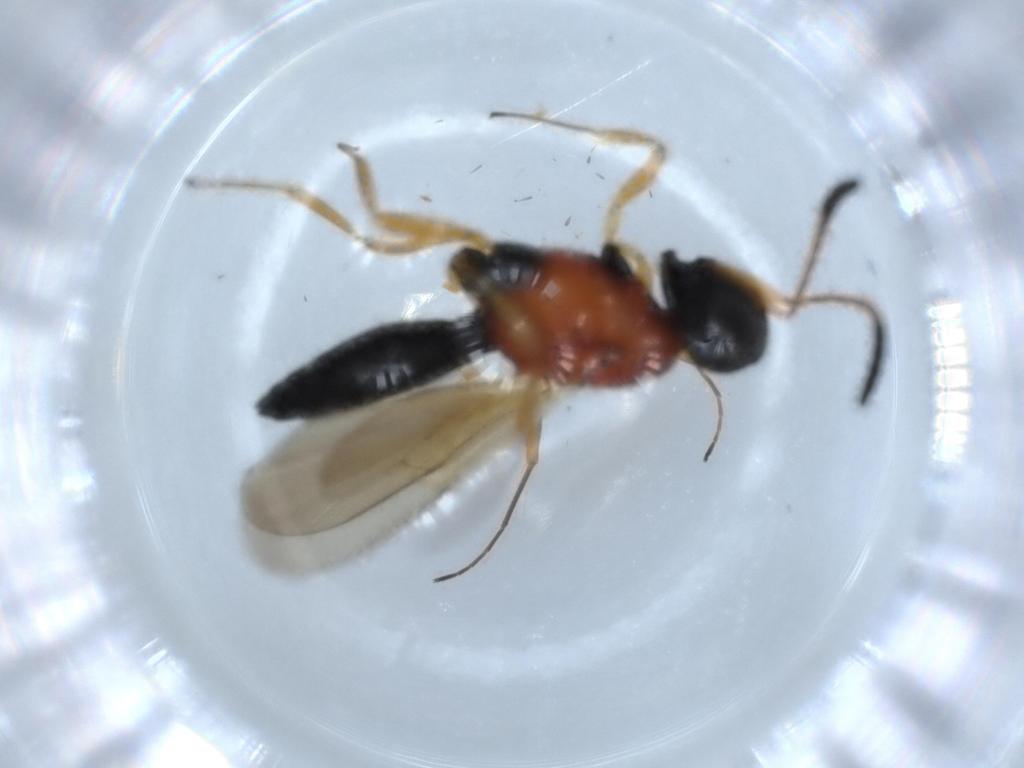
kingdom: Animalia
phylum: Arthropoda
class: Insecta
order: Hymenoptera
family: Scelionidae
